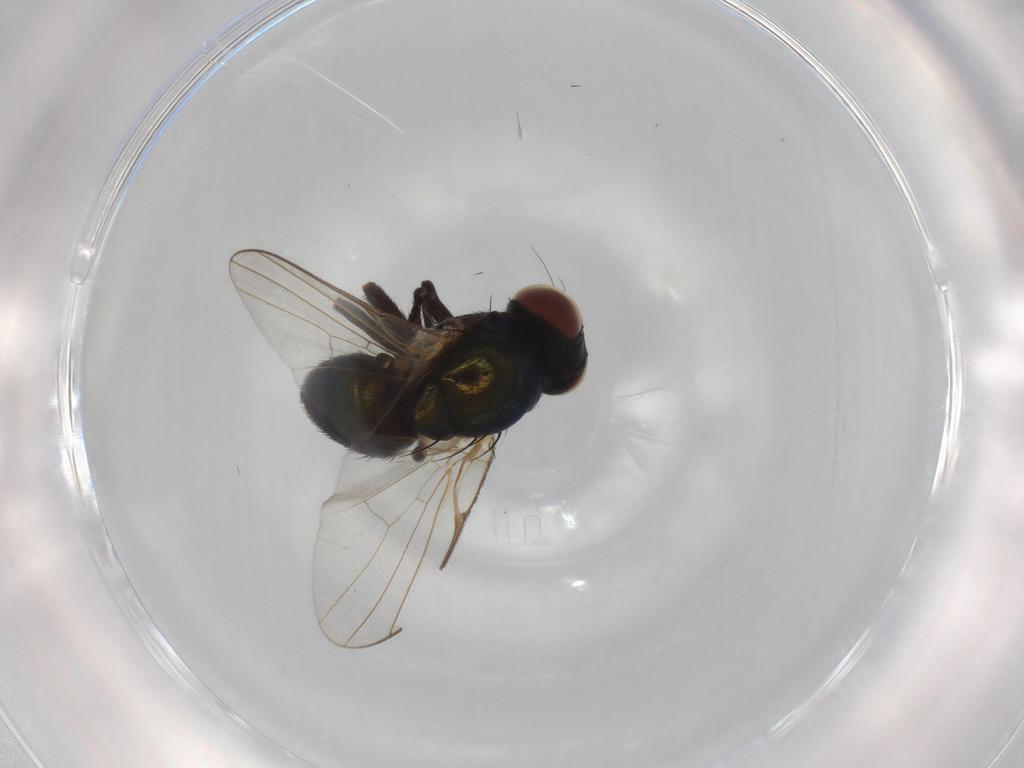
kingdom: Animalia
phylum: Arthropoda
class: Insecta
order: Diptera
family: Agromyzidae
